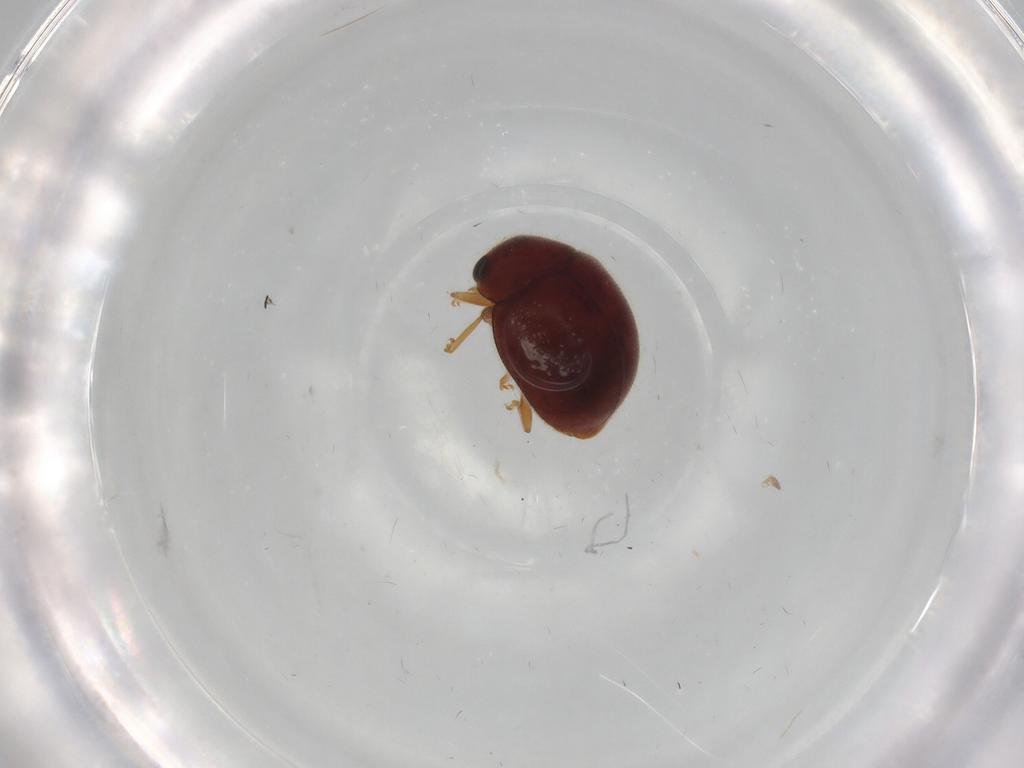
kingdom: Animalia
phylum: Arthropoda
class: Insecta
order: Coleoptera
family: Coccinellidae
